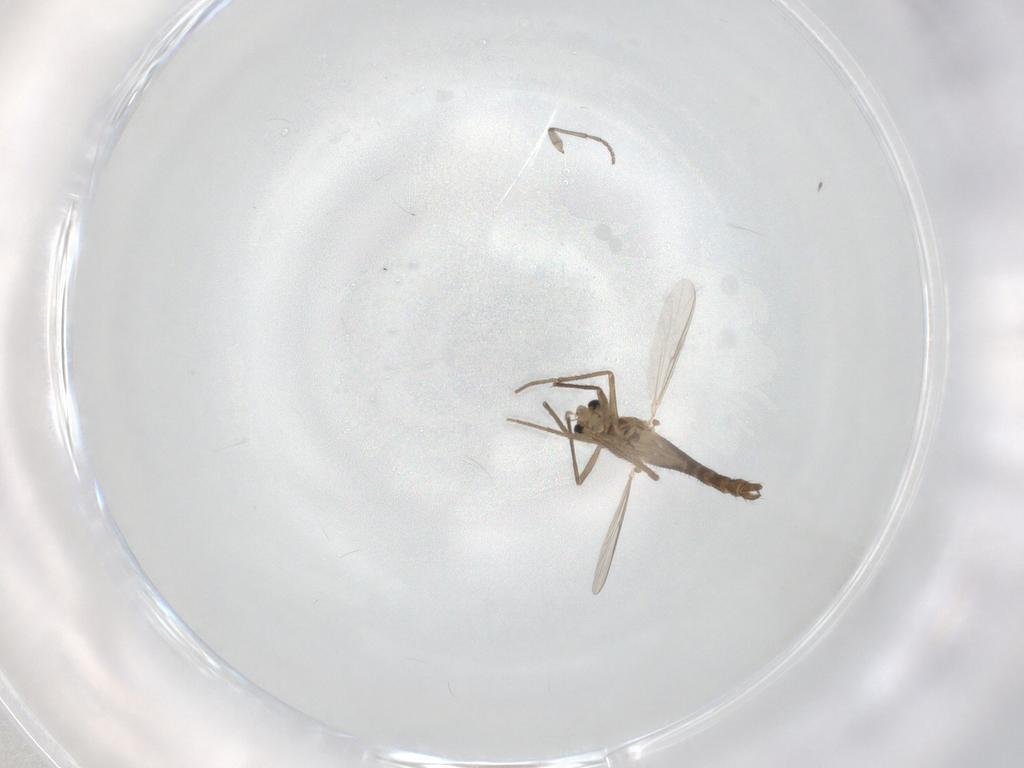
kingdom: Animalia
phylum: Arthropoda
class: Insecta
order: Diptera
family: Chironomidae
